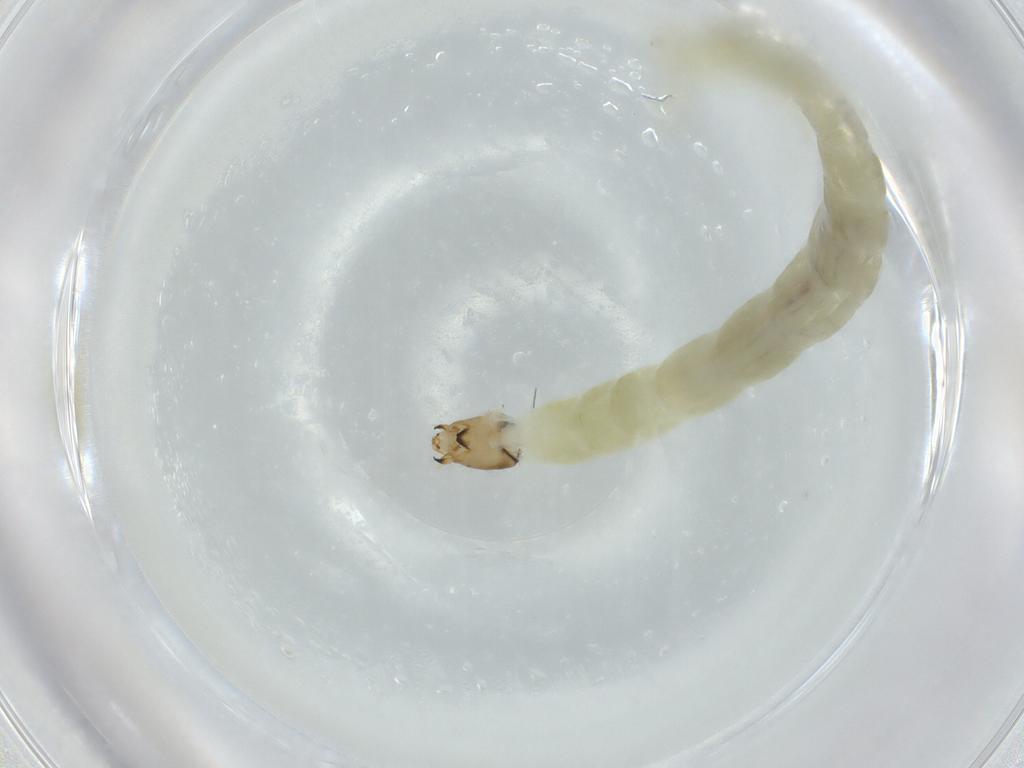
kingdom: Animalia
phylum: Arthropoda
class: Insecta
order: Diptera
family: Chironomidae
